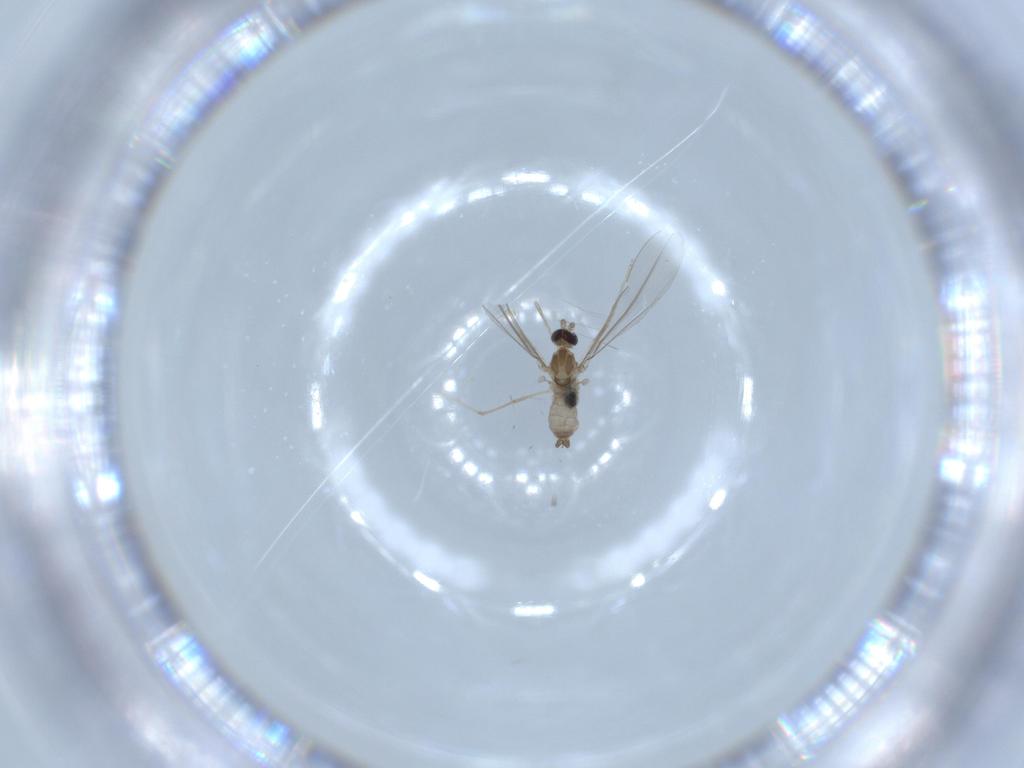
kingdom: Animalia
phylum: Arthropoda
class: Insecta
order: Diptera
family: Cecidomyiidae
